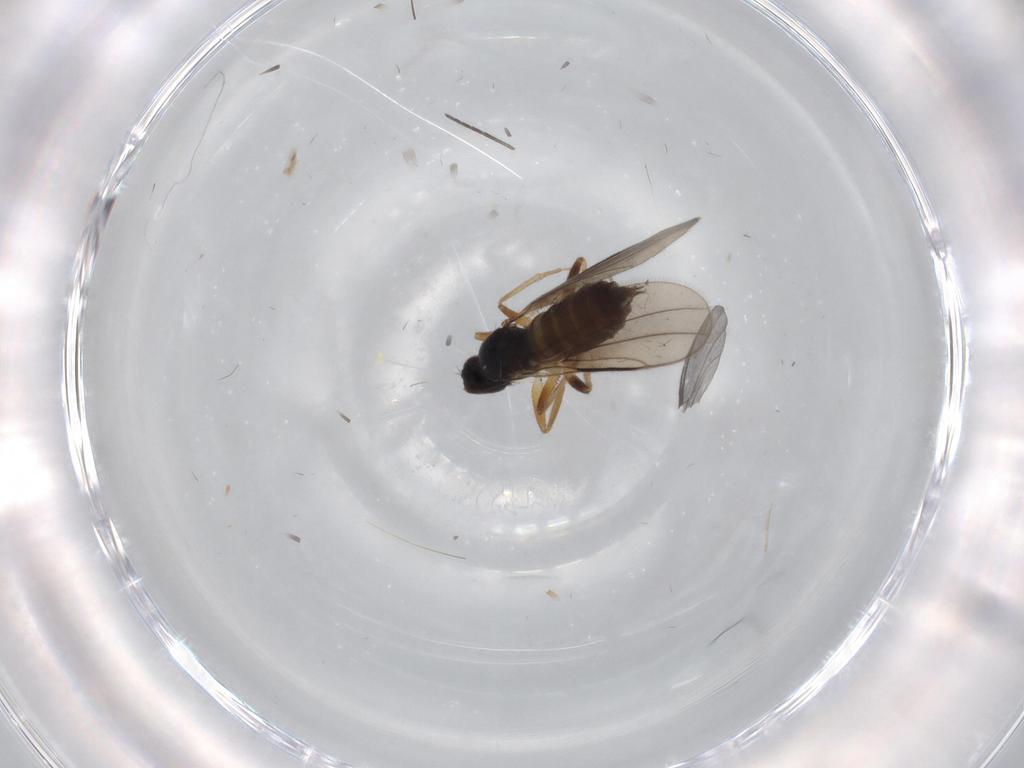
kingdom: Animalia
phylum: Arthropoda
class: Insecta
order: Diptera
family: Hybotidae
